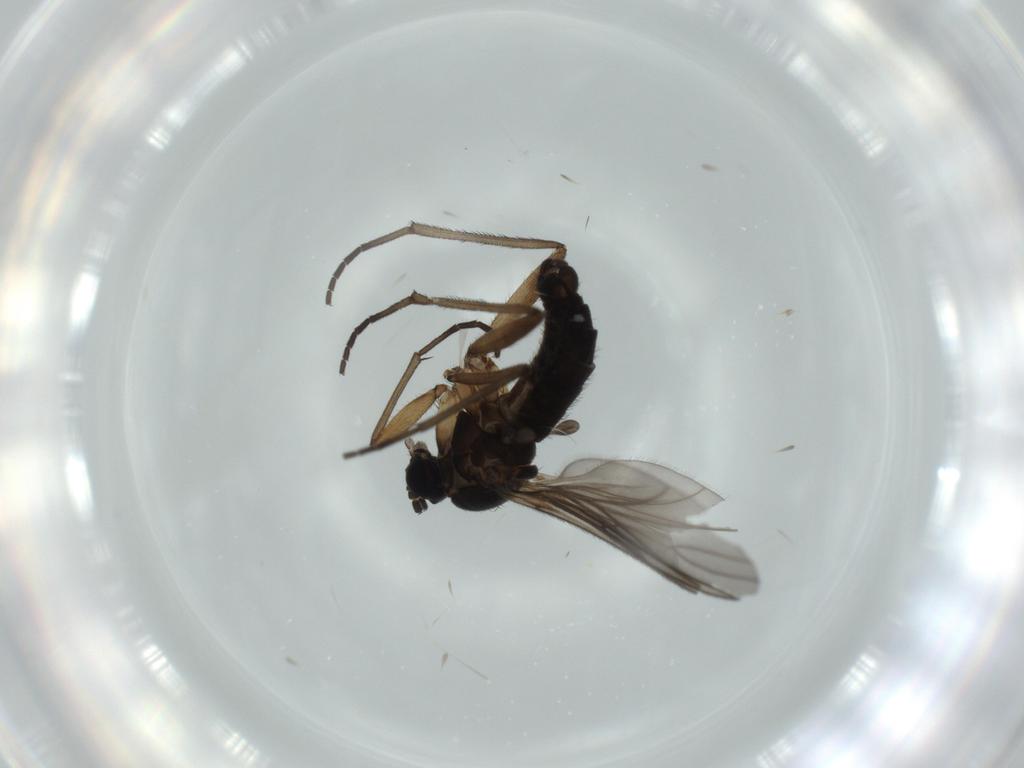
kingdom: Animalia
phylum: Arthropoda
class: Insecta
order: Diptera
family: Sciaridae
